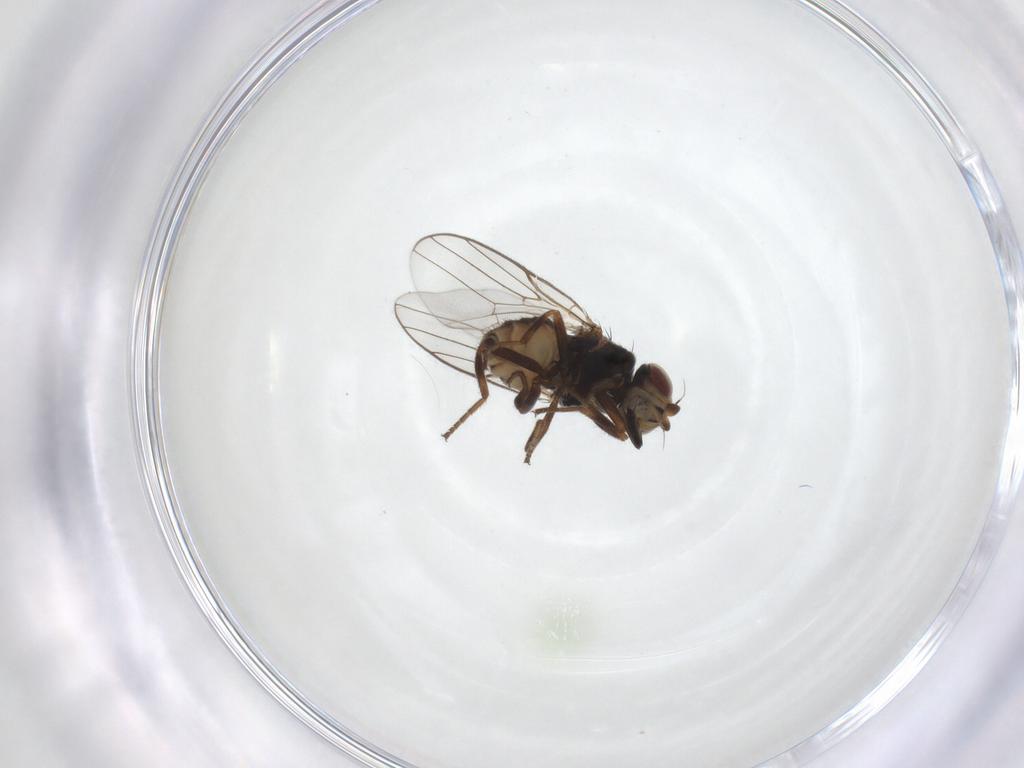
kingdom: Animalia
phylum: Arthropoda
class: Insecta
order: Diptera
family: Chloropidae
